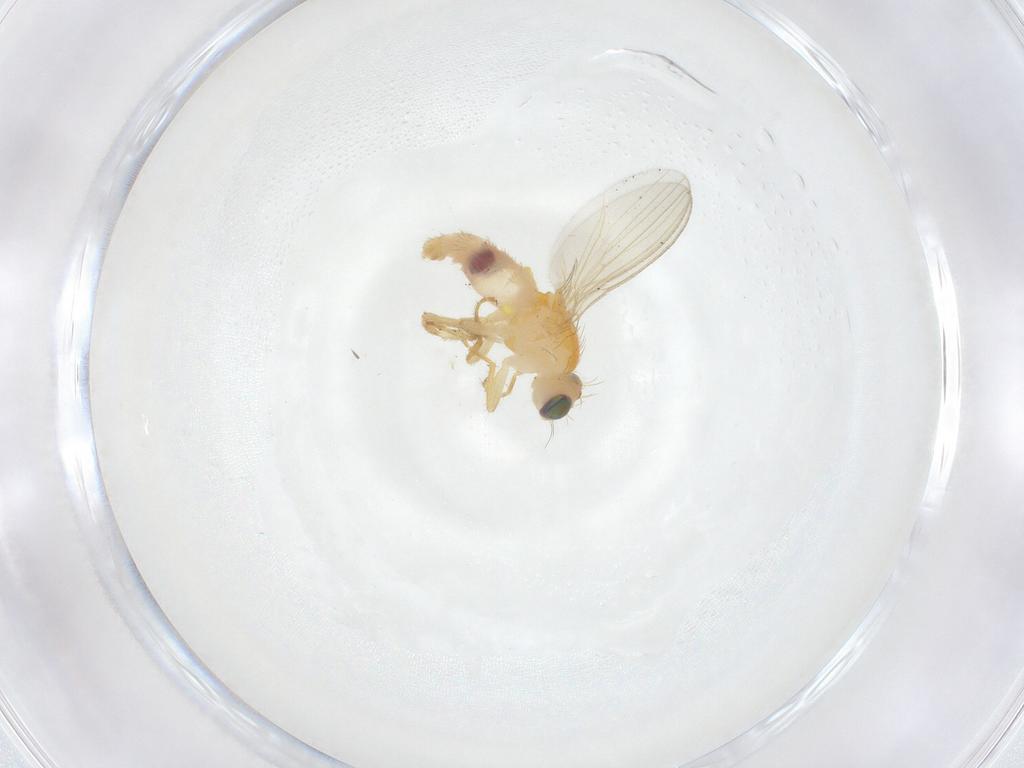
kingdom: Animalia
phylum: Arthropoda
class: Insecta
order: Diptera
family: Chyromyidae
